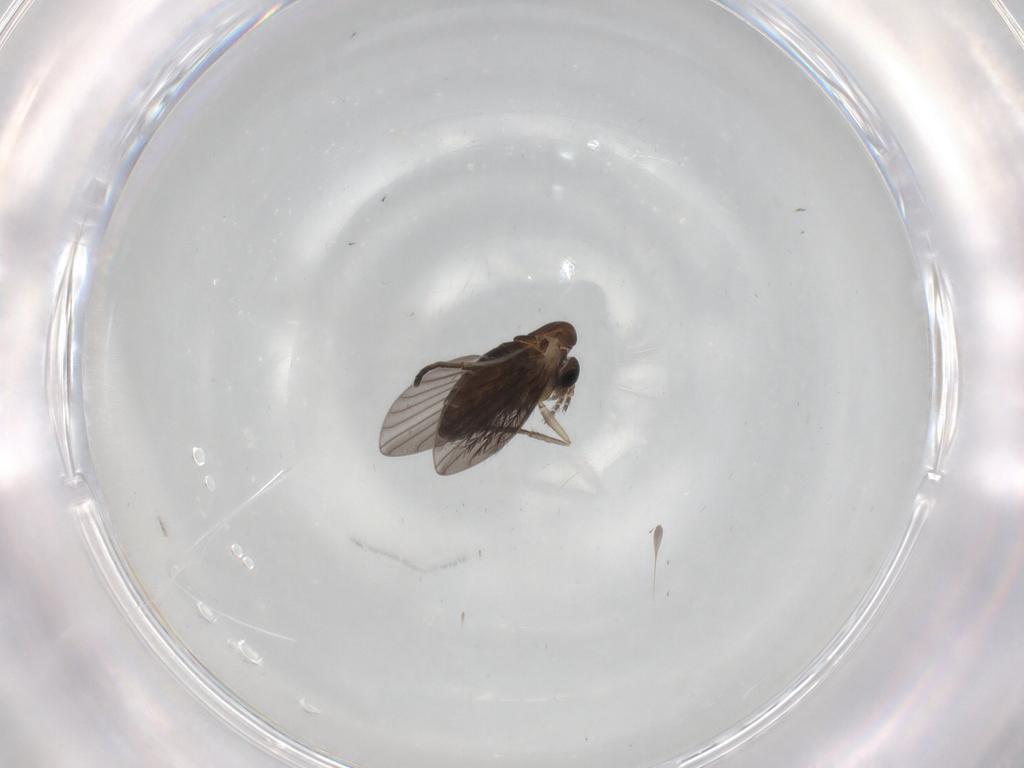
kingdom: Animalia
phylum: Arthropoda
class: Insecta
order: Diptera
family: Psychodidae
